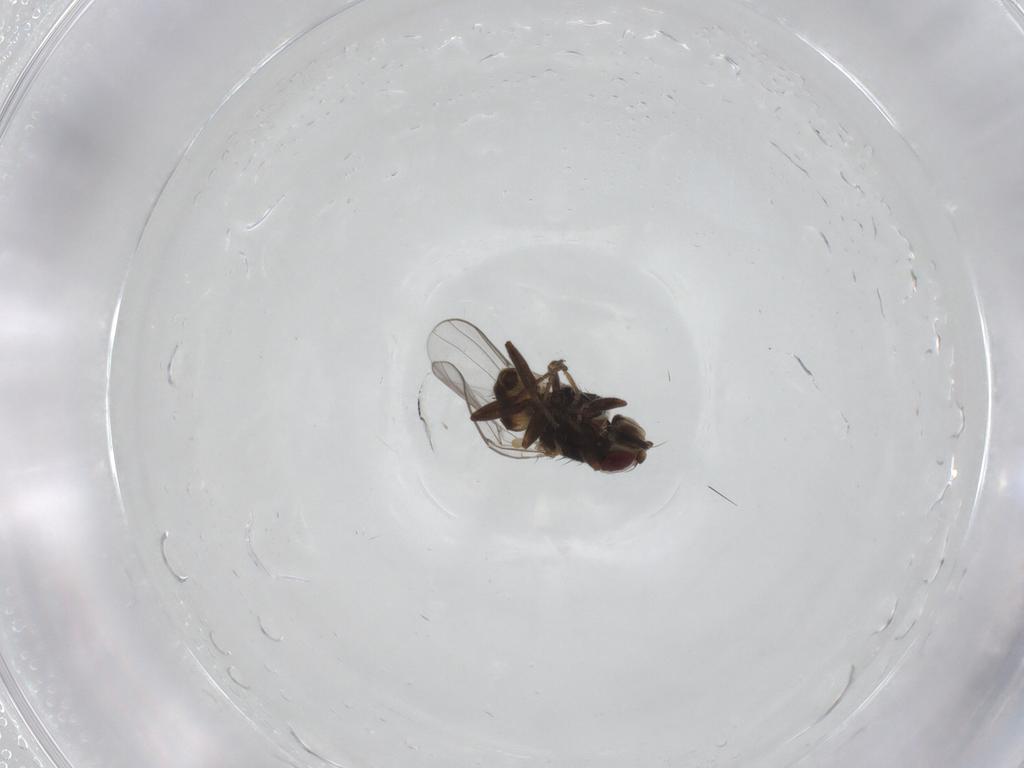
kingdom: Animalia
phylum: Arthropoda
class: Insecta
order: Diptera
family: Chloropidae
